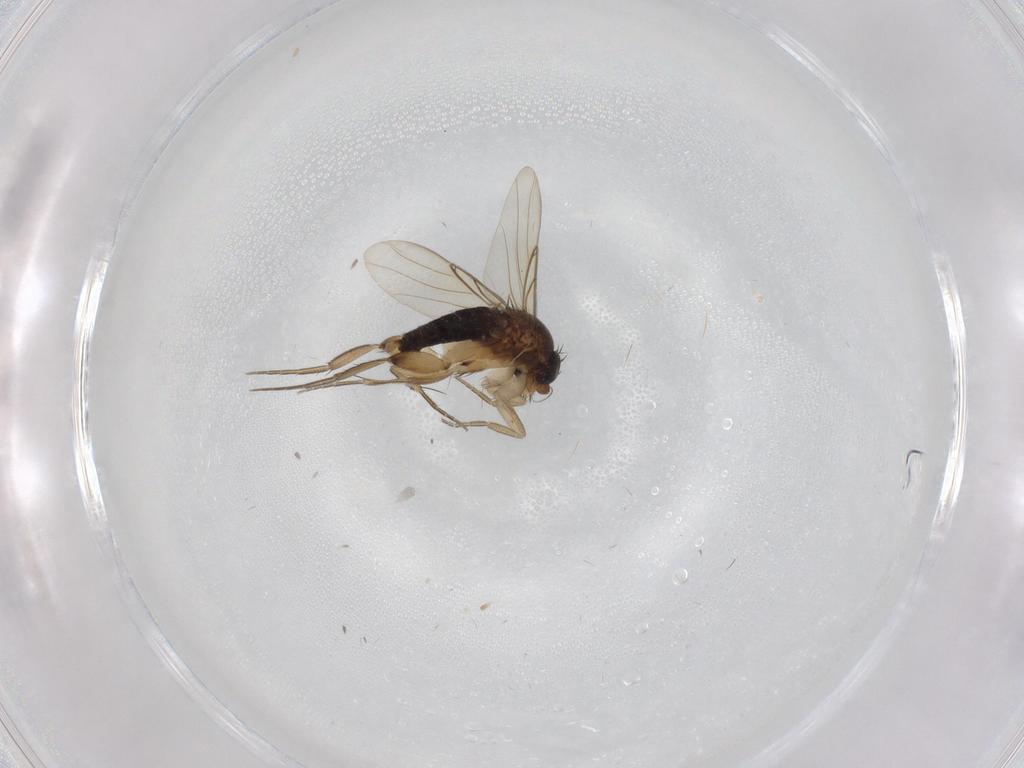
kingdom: Animalia
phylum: Arthropoda
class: Insecta
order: Diptera
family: Phoridae
